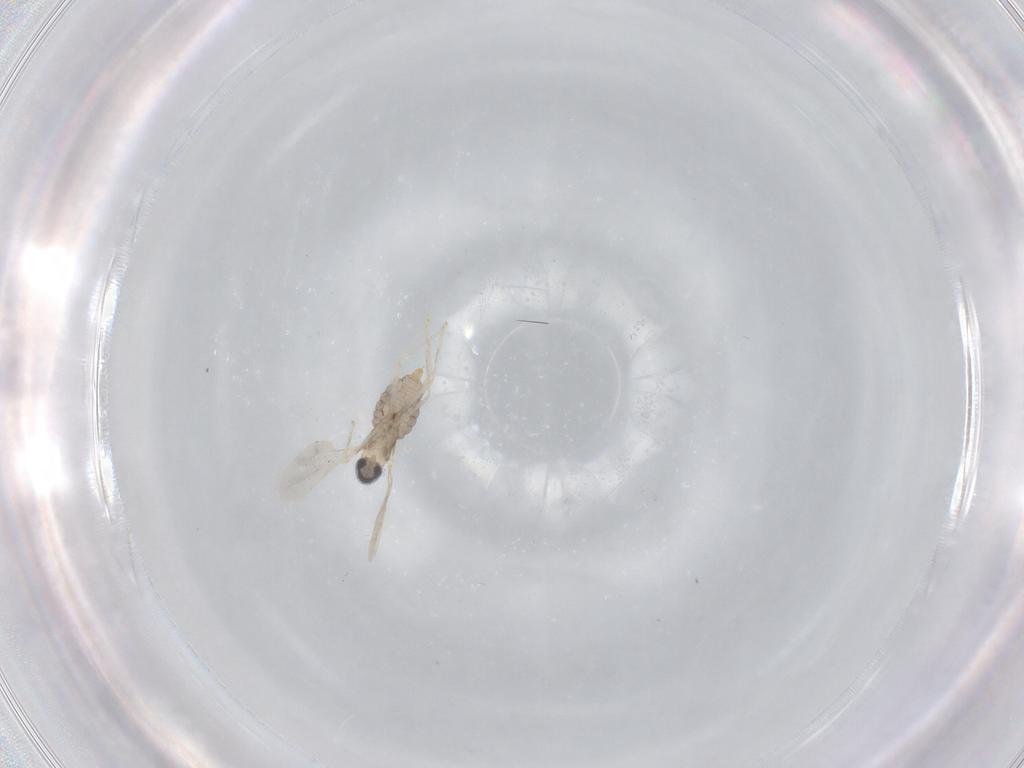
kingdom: Animalia
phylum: Arthropoda
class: Insecta
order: Diptera
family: Cecidomyiidae
